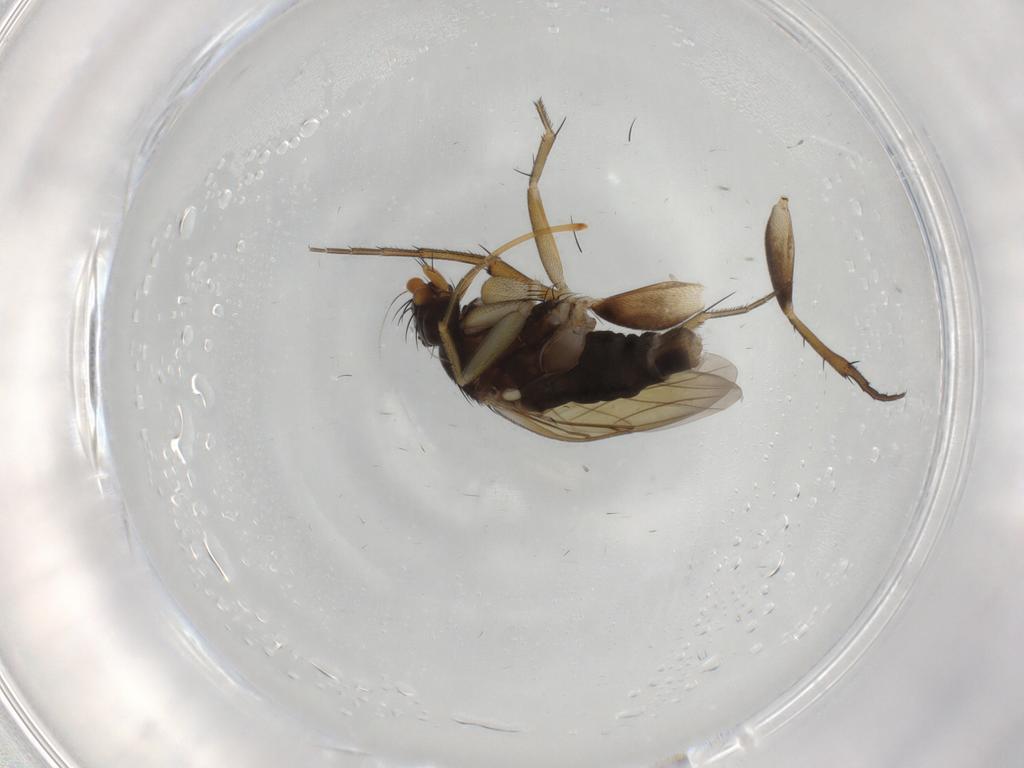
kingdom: Animalia
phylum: Arthropoda
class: Insecta
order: Diptera
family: Phoridae
